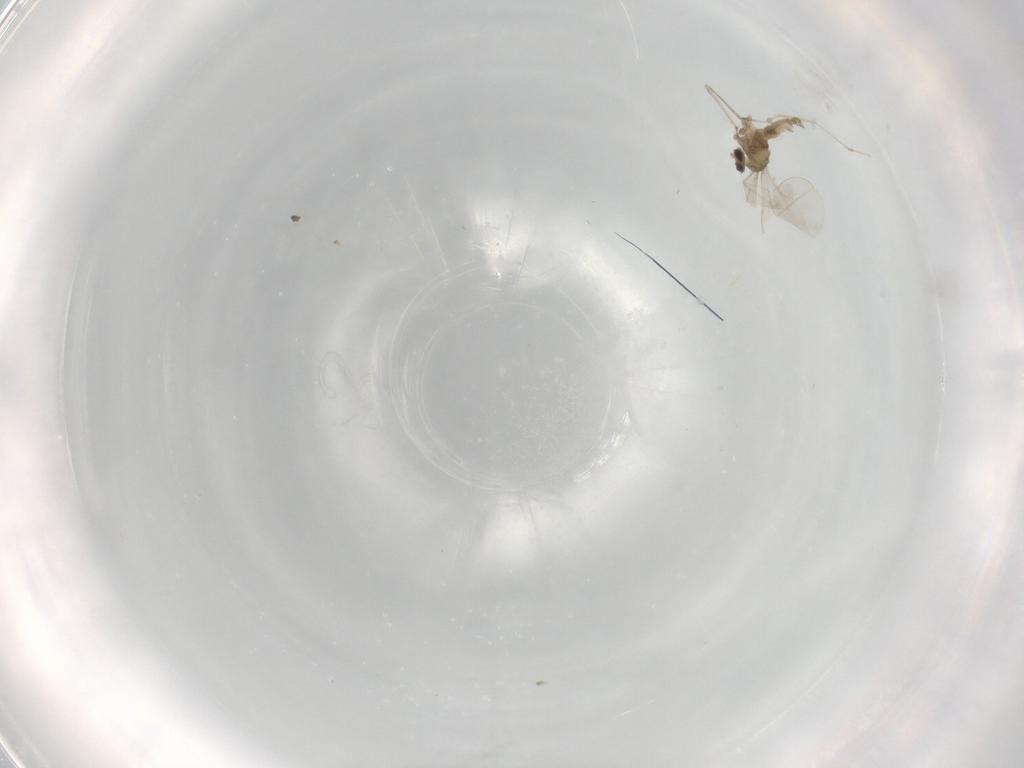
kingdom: Animalia
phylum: Arthropoda
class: Insecta
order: Diptera
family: Cecidomyiidae
